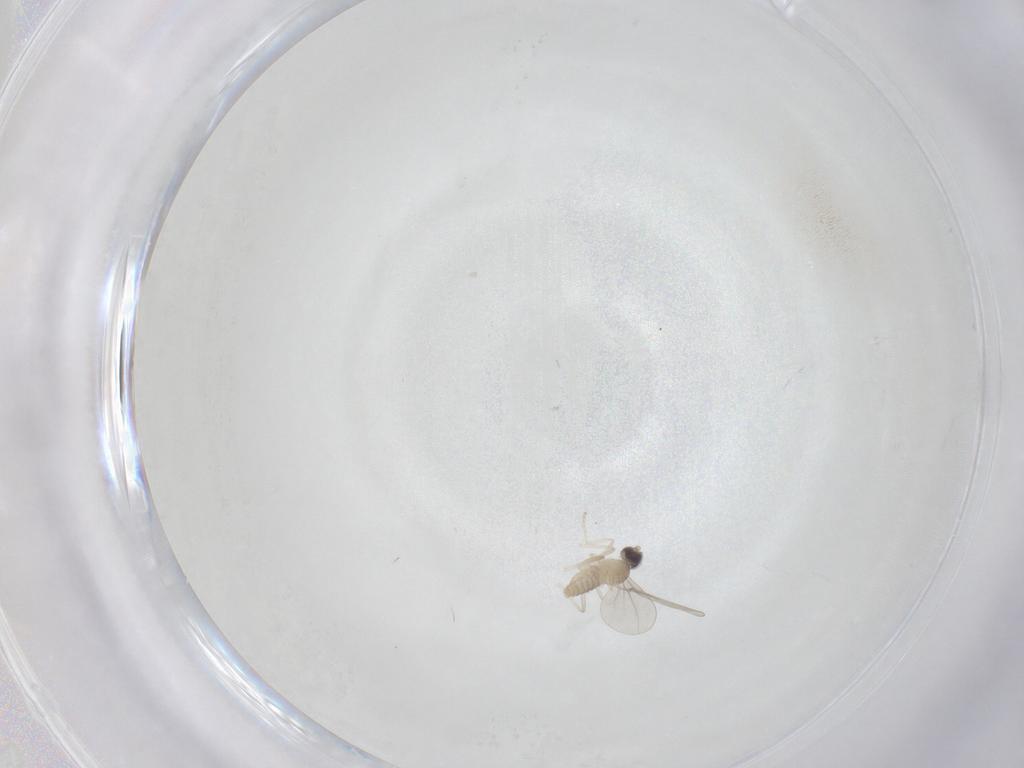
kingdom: Animalia
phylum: Arthropoda
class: Insecta
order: Diptera
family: Cecidomyiidae
